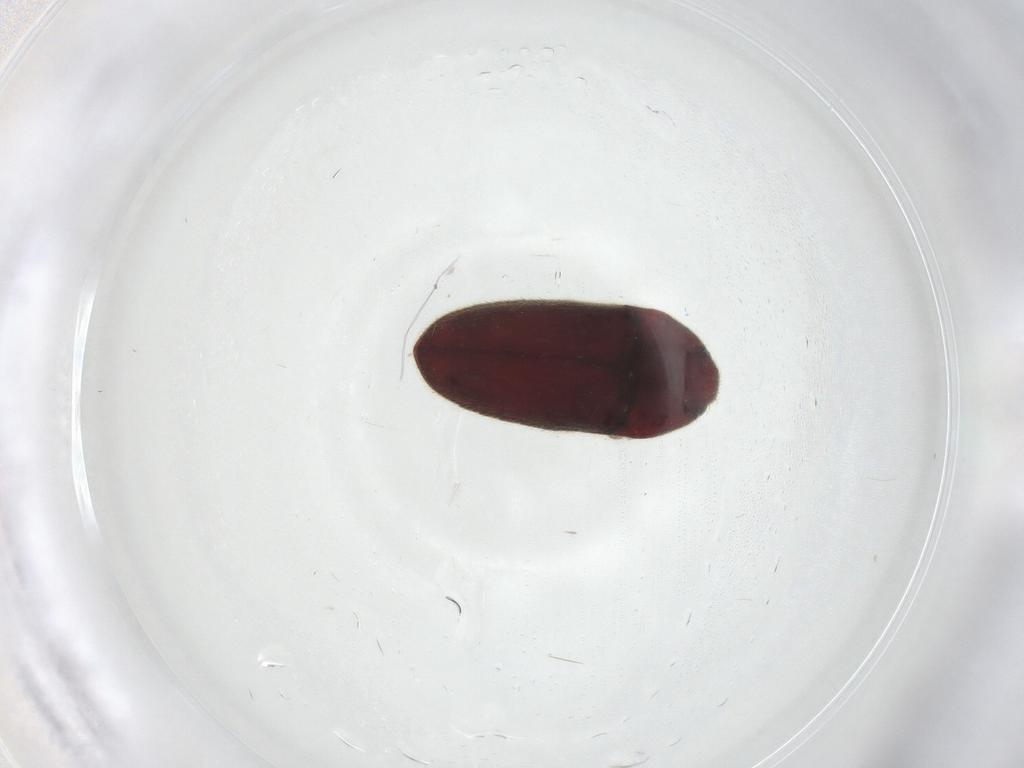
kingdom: Animalia
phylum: Arthropoda
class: Insecta
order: Coleoptera
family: Throscidae
